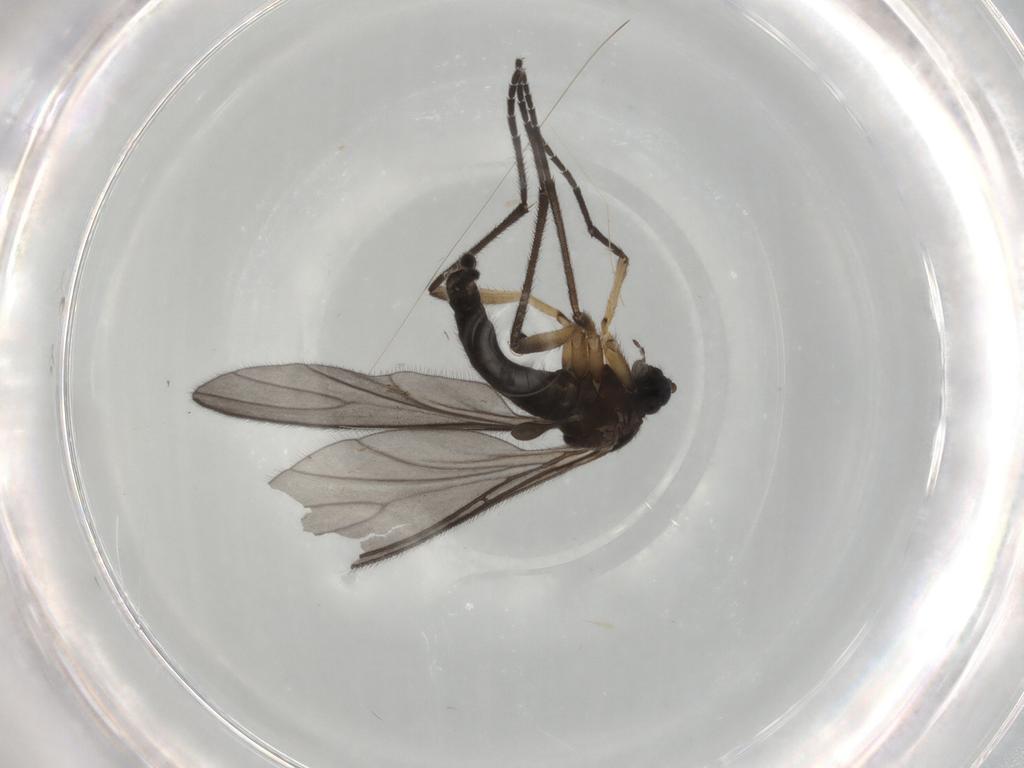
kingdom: Animalia
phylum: Arthropoda
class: Insecta
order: Diptera
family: Sciaridae
